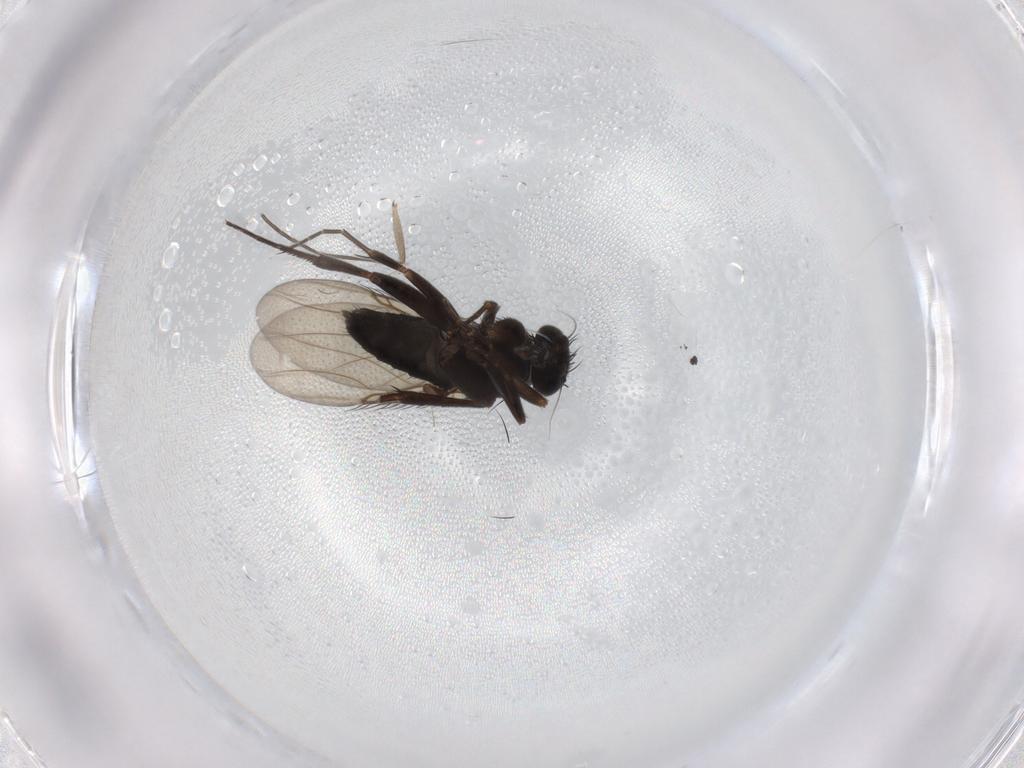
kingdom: Animalia
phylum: Arthropoda
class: Insecta
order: Diptera
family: Phoridae
